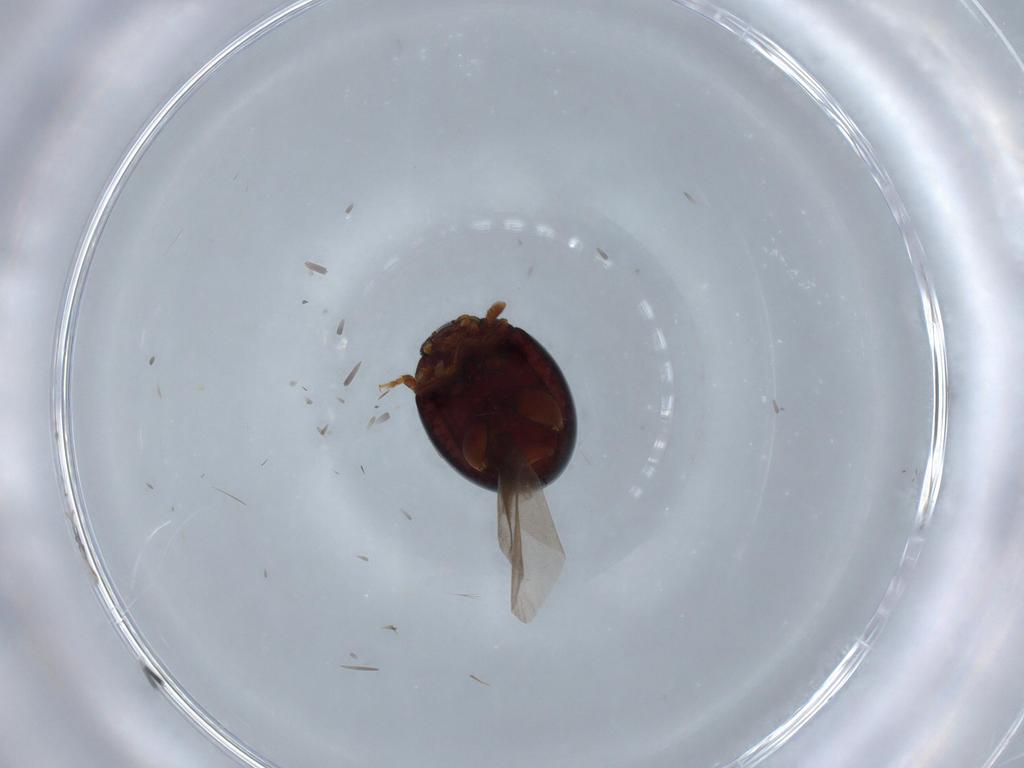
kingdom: Animalia
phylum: Arthropoda
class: Insecta
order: Coleoptera
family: Chrysomelidae
